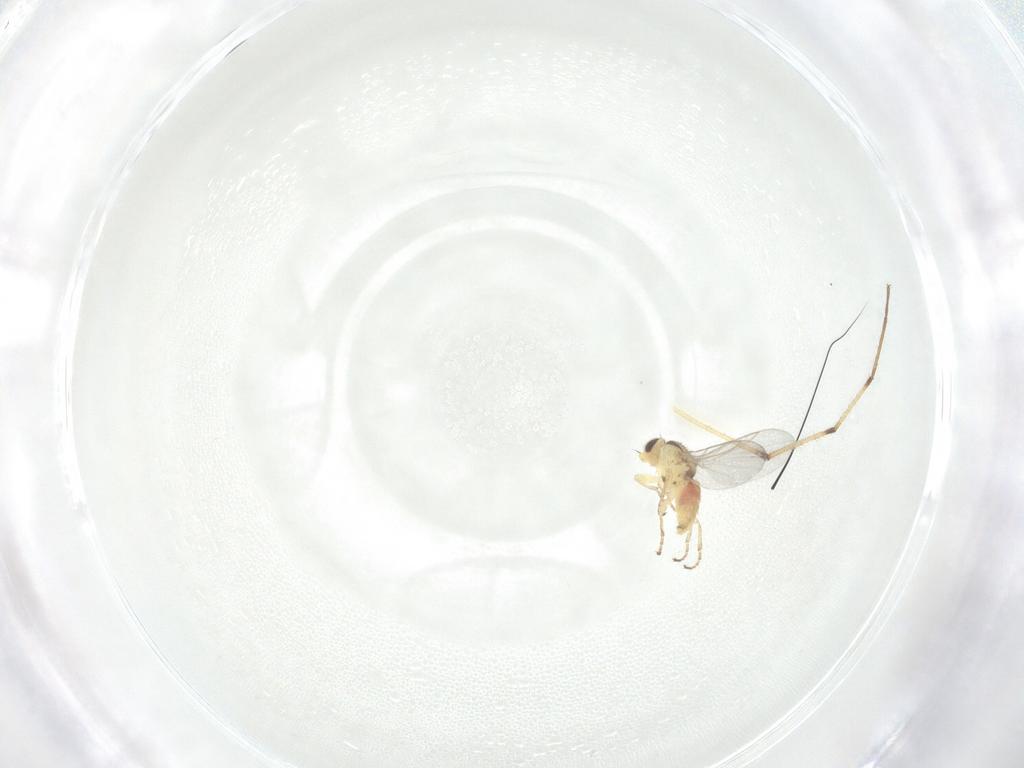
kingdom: Animalia
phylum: Arthropoda
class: Insecta
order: Diptera
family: Agromyzidae
